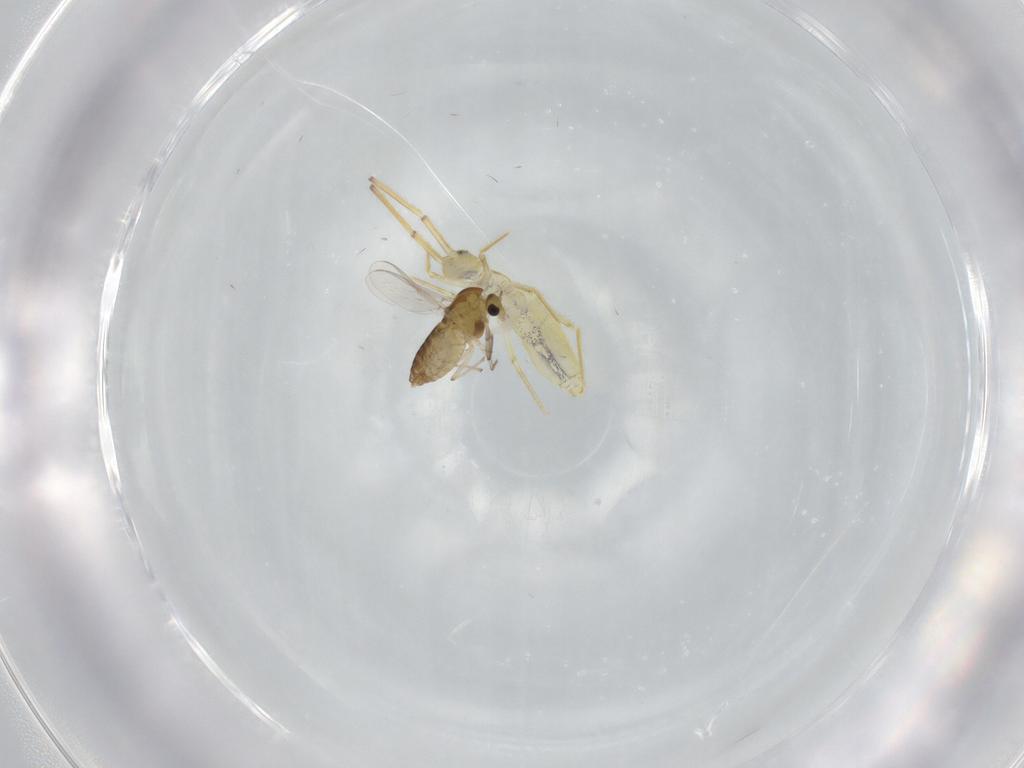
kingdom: Animalia
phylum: Arthropoda
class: Insecta
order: Diptera
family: Chironomidae
